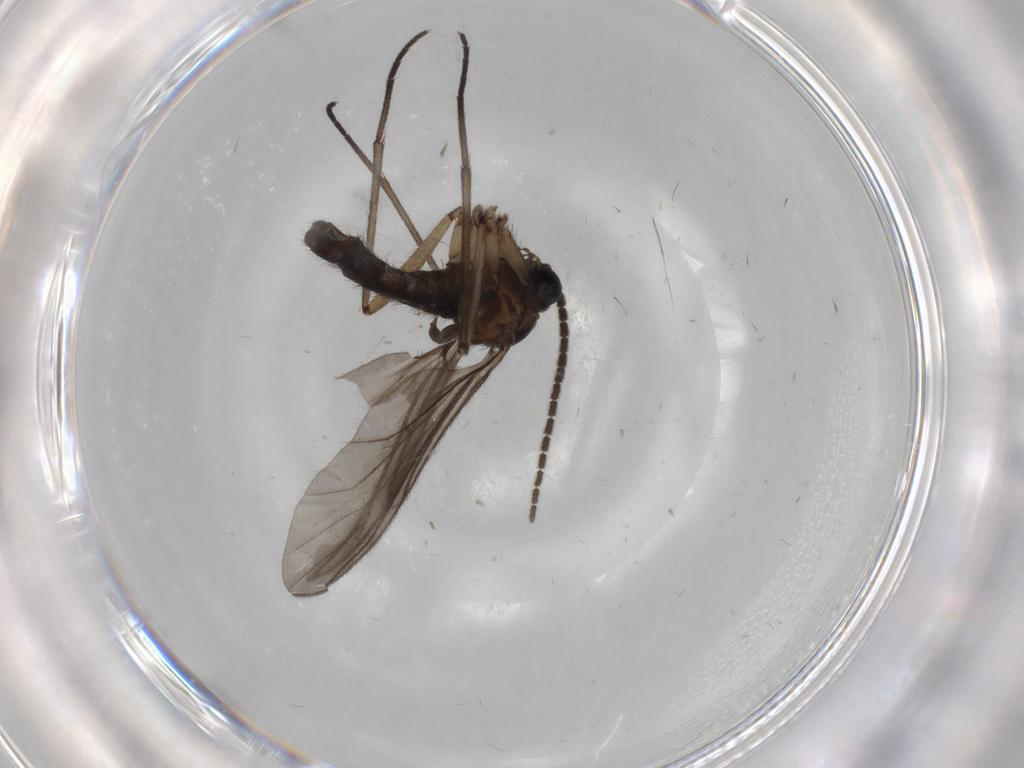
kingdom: Animalia
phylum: Arthropoda
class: Insecta
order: Diptera
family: Sciaridae
